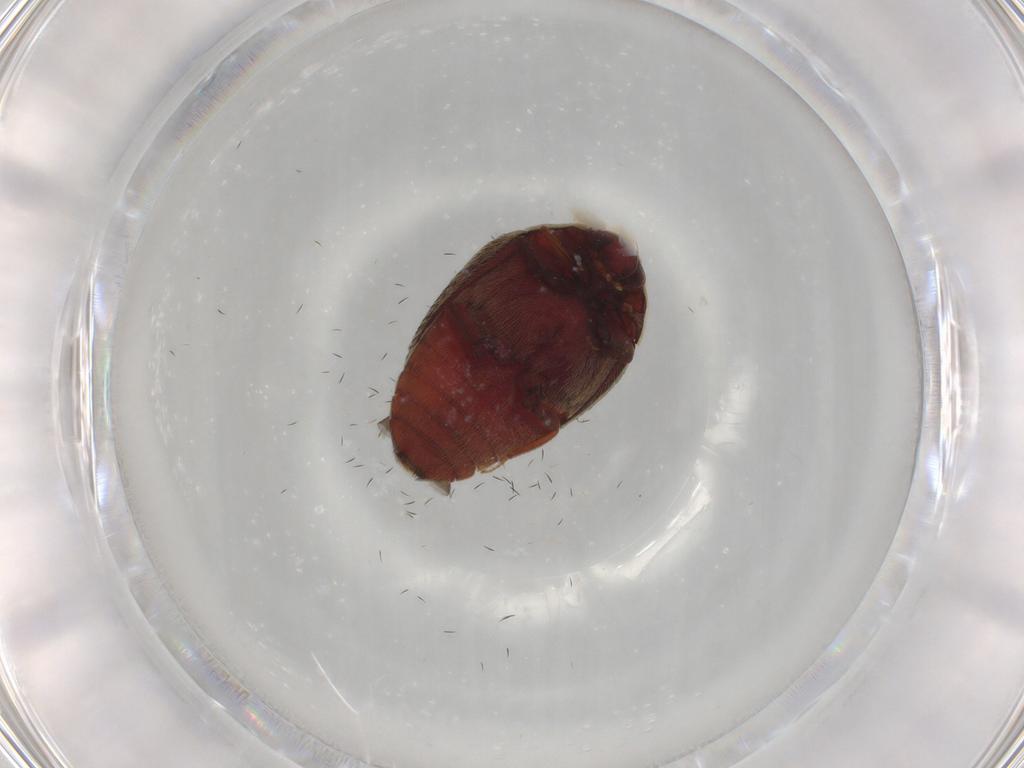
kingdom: Animalia
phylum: Arthropoda
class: Insecta
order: Coleoptera
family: Dermestidae
